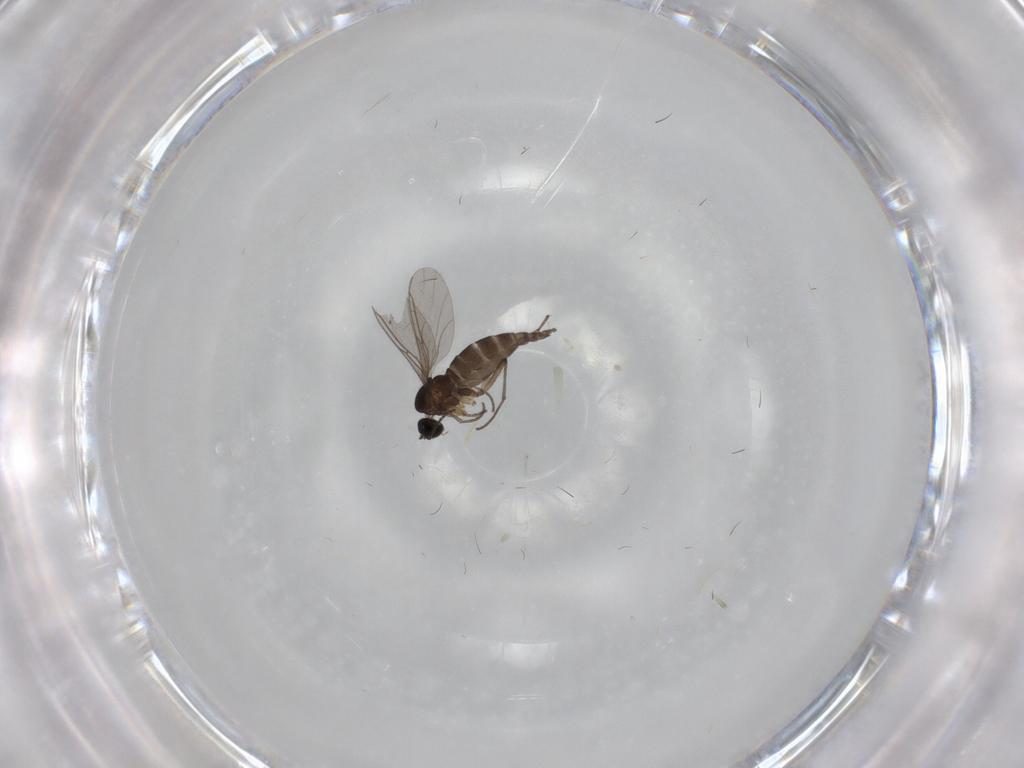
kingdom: Animalia
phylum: Arthropoda
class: Insecta
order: Diptera
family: Sciaridae
